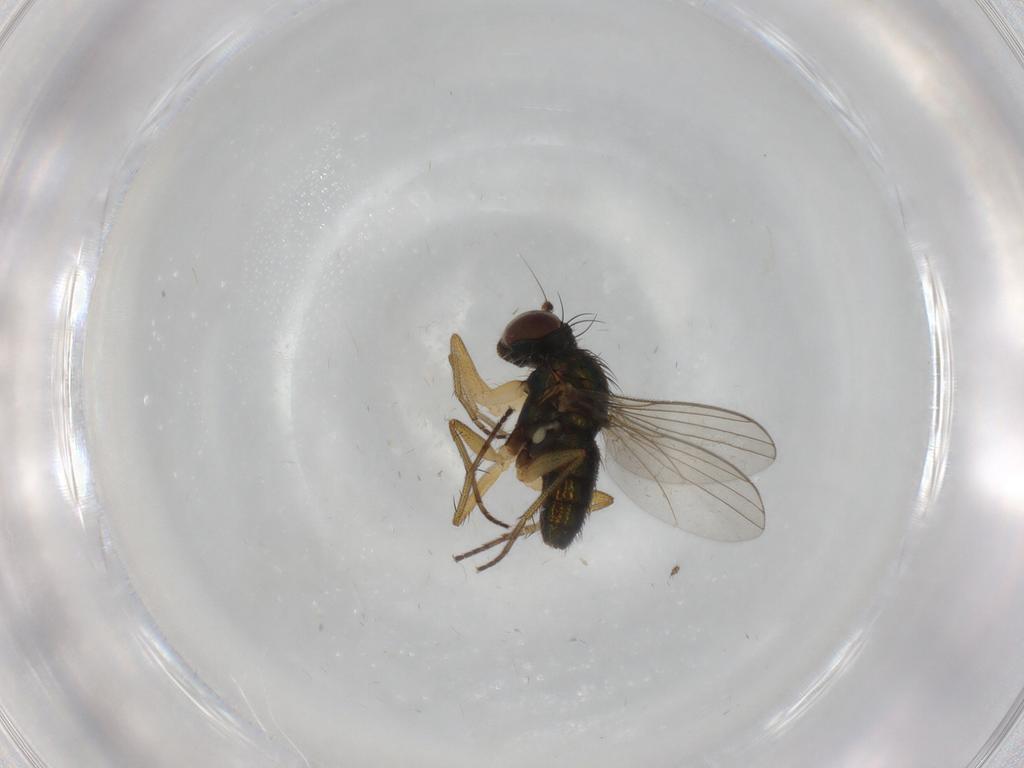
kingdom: Animalia
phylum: Arthropoda
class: Insecta
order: Diptera
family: Dolichopodidae
